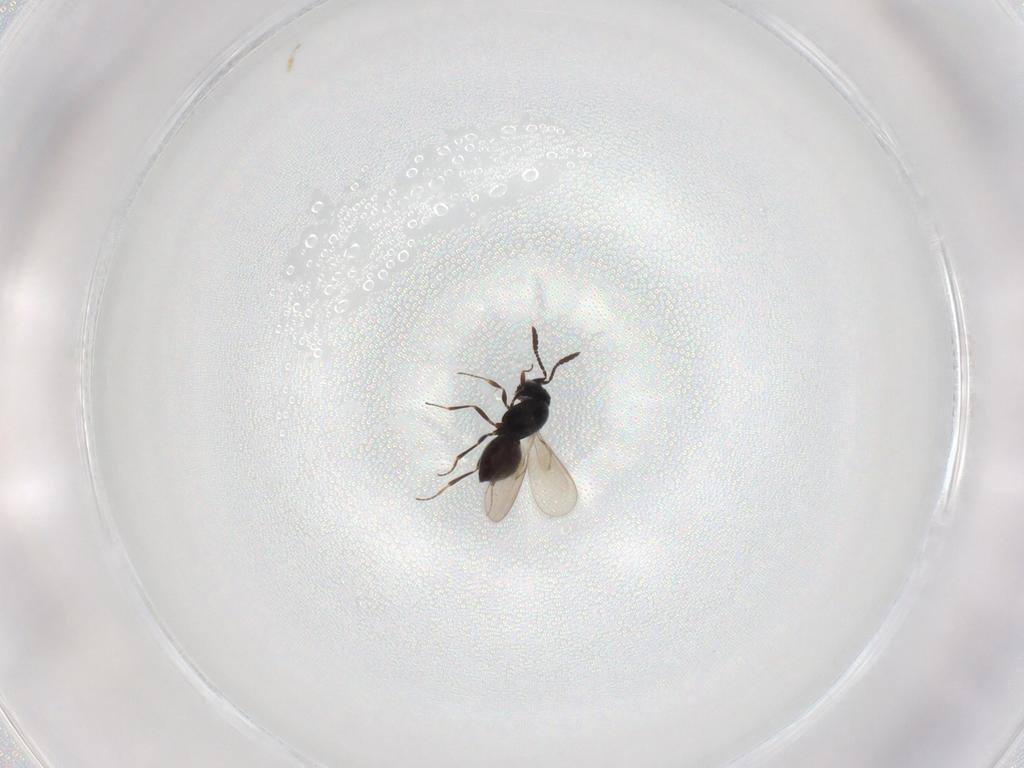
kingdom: Animalia
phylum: Arthropoda
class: Insecta
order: Hymenoptera
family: Scelionidae
